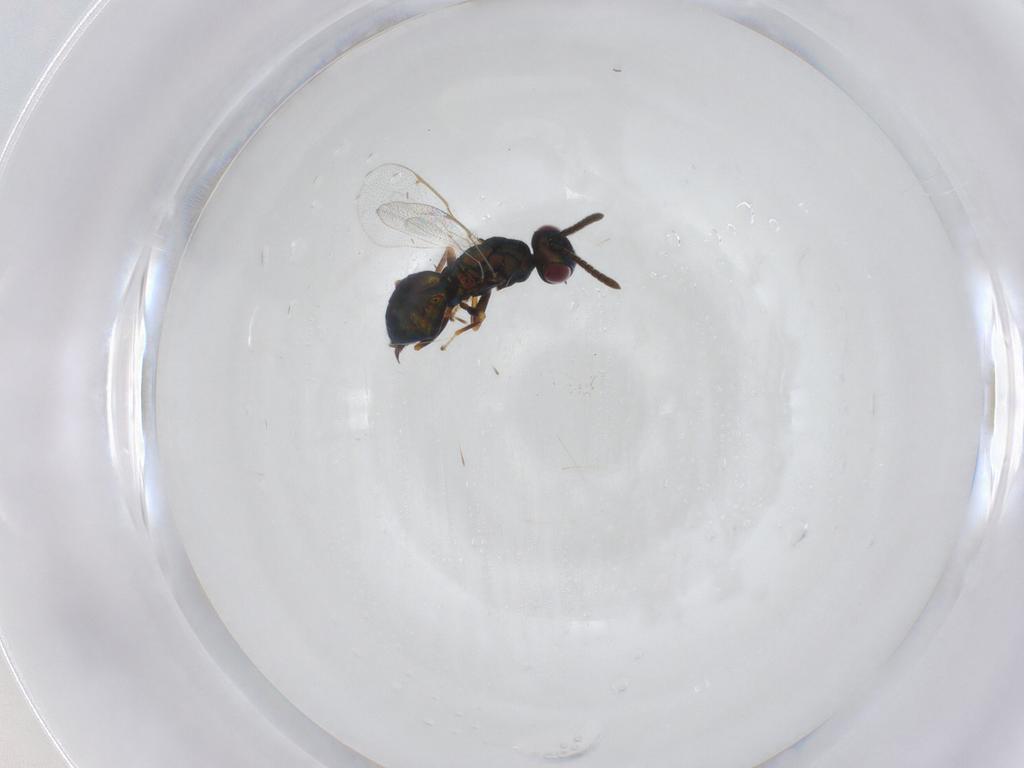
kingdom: Animalia
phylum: Arthropoda
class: Insecta
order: Hymenoptera
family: Torymidae
